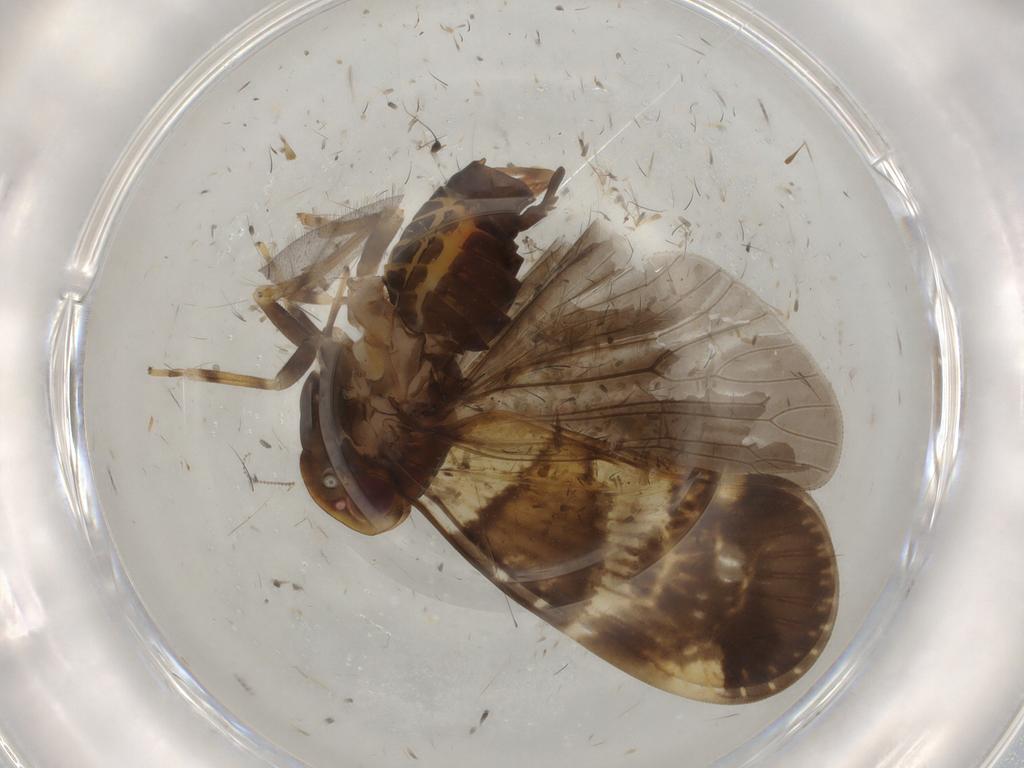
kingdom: Animalia
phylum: Arthropoda
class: Insecta
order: Hemiptera
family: Cixiidae
